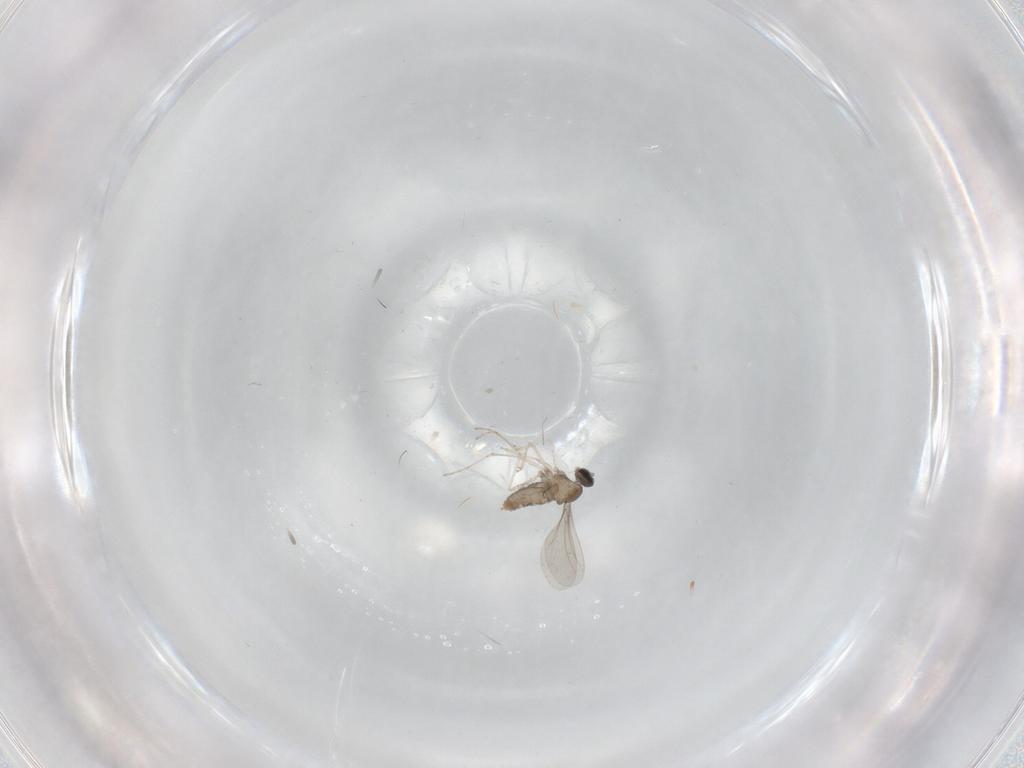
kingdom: Animalia
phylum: Arthropoda
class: Insecta
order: Diptera
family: Cecidomyiidae
